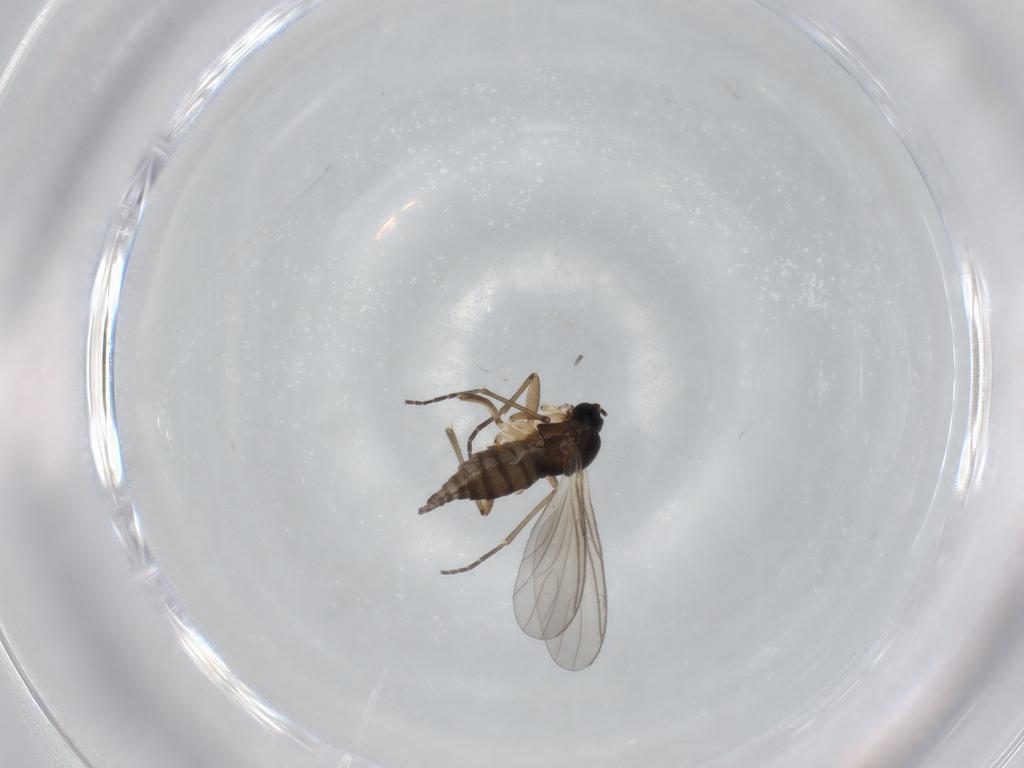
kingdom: Animalia
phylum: Arthropoda
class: Insecta
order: Diptera
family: Sciaridae
